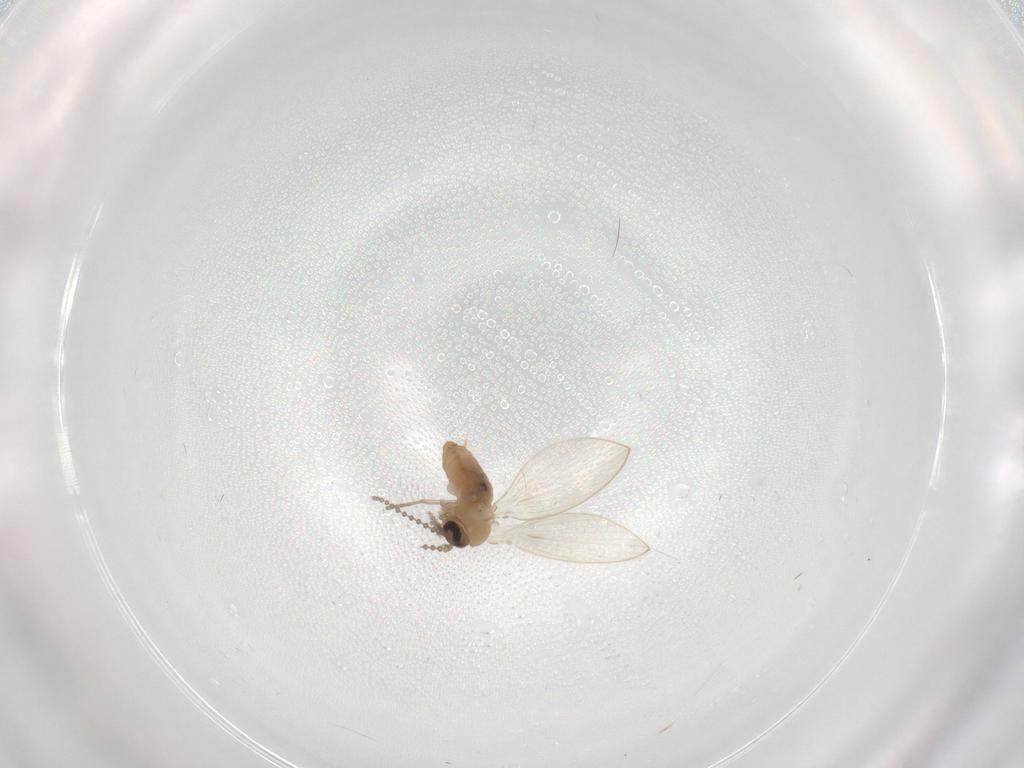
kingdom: Animalia
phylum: Arthropoda
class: Insecta
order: Diptera
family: Psychodidae
